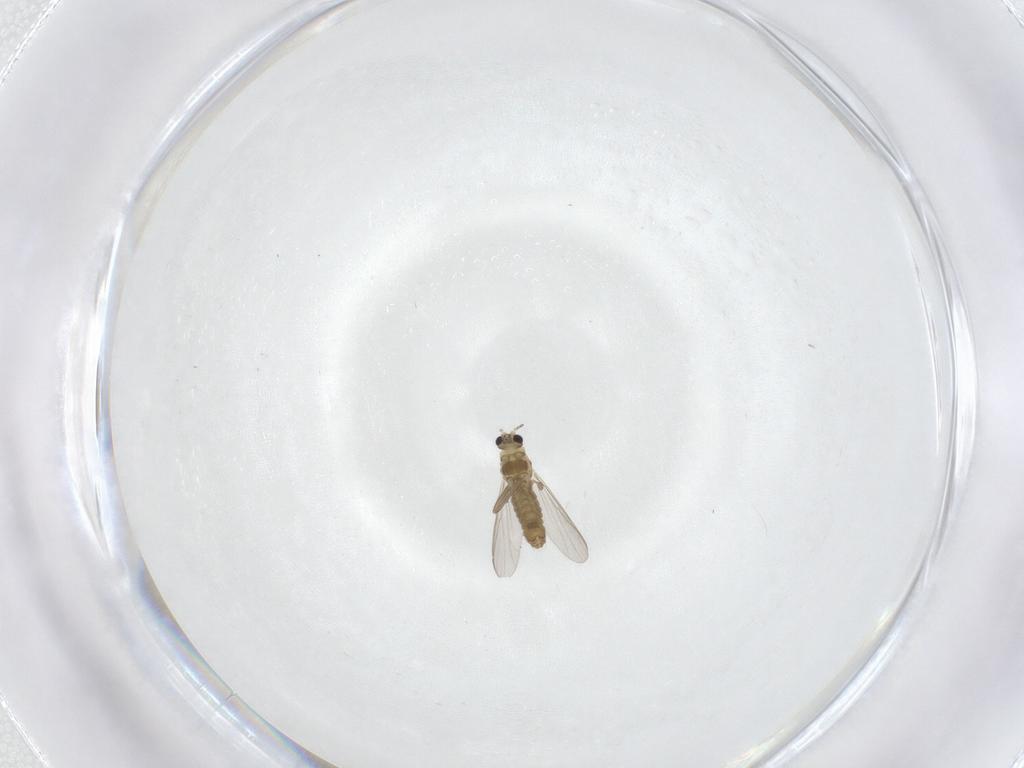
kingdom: Animalia
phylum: Arthropoda
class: Insecta
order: Diptera
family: Chironomidae
